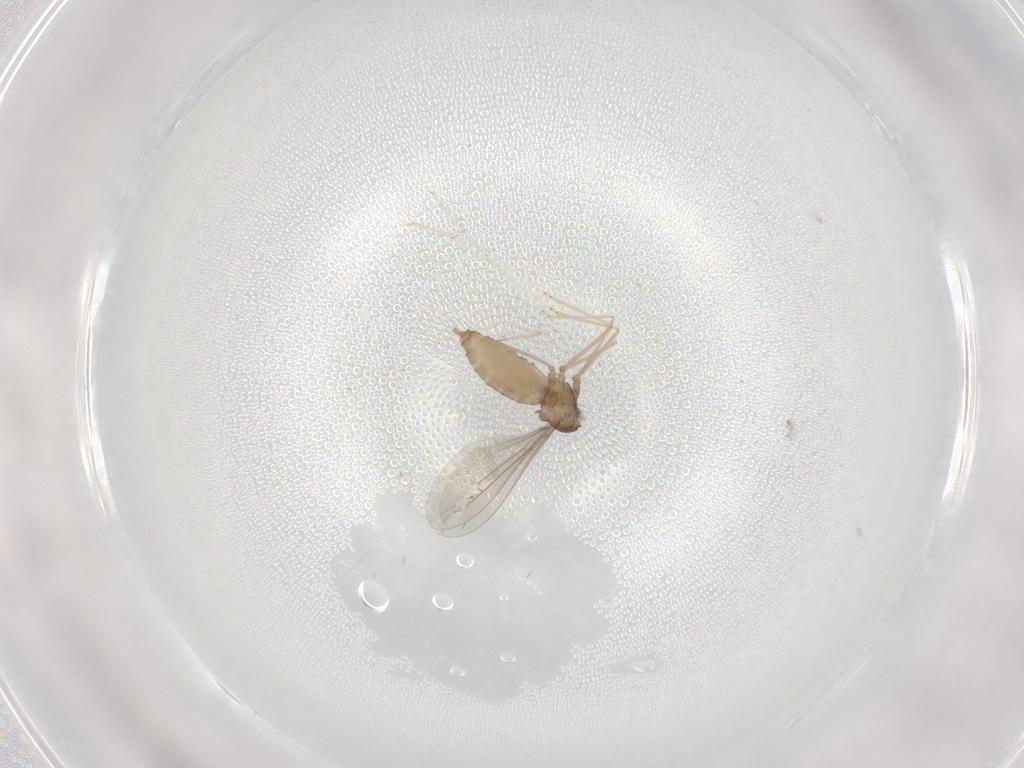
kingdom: Animalia
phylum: Arthropoda
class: Insecta
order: Diptera
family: Cecidomyiidae
